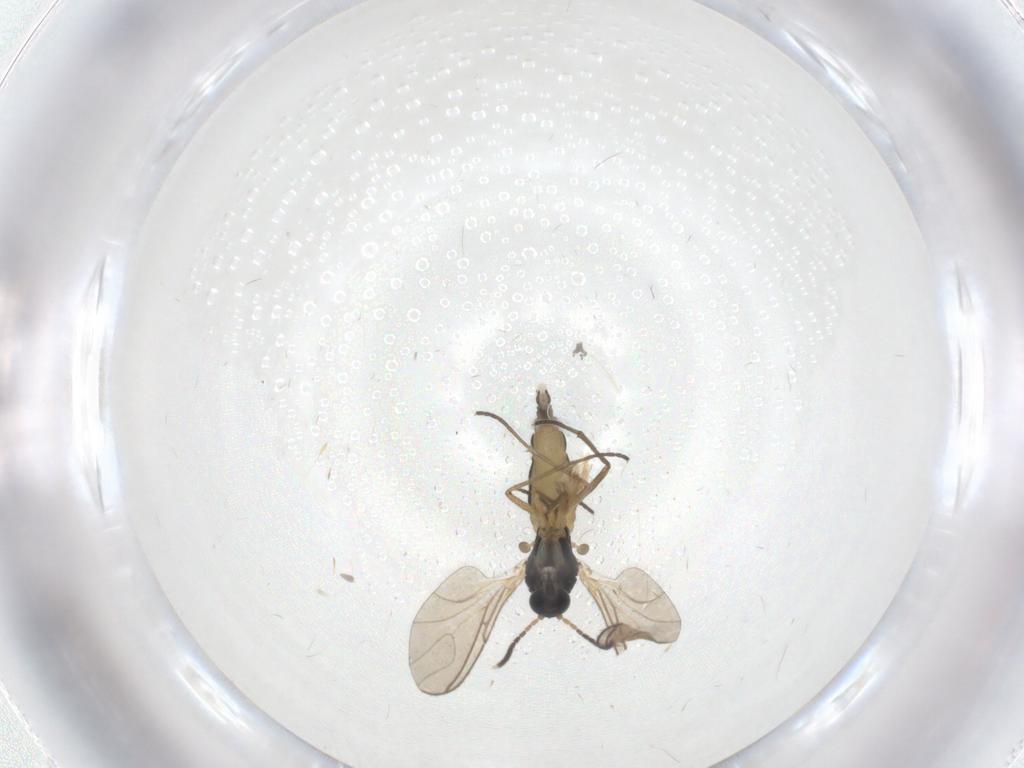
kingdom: Animalia
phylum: Arthropoda
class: Insecta
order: Diptera
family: Sciaridae
